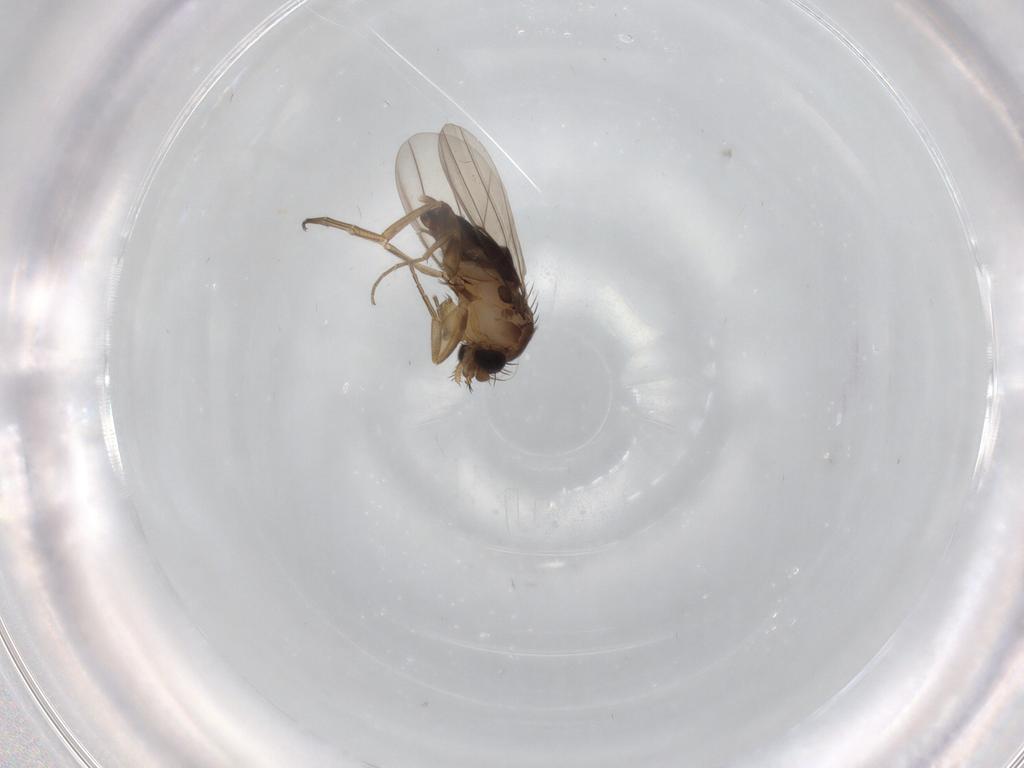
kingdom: Animalia
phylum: Arthropoda
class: Insecta
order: Diptera
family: Phoridae
